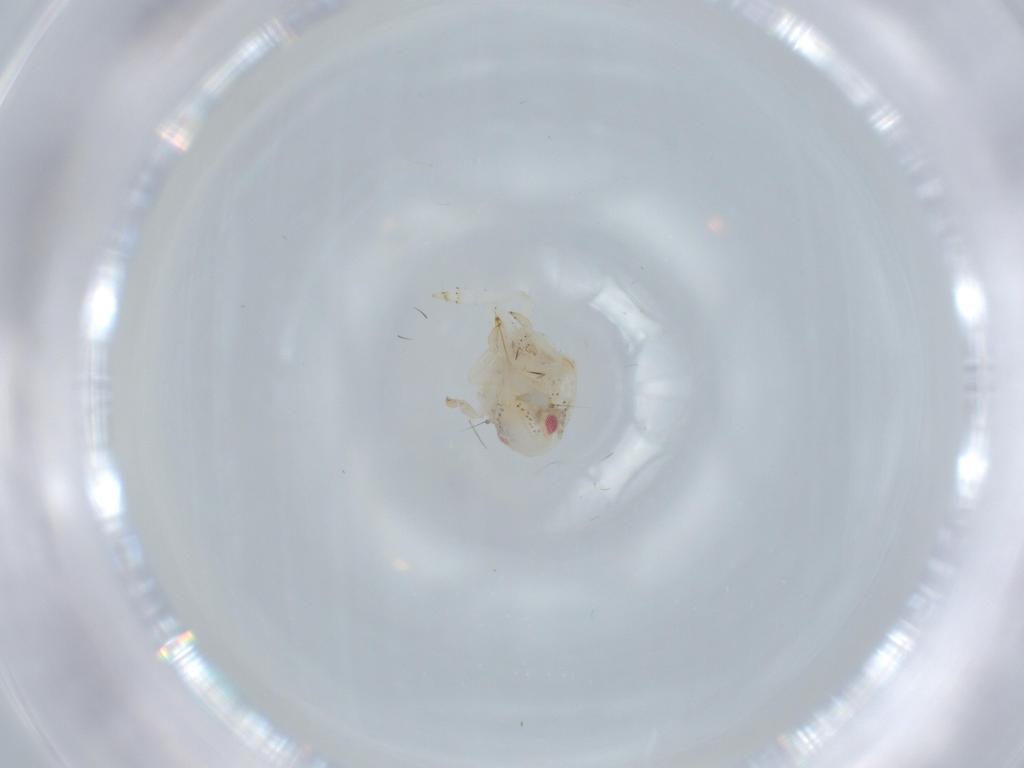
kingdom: Animalia
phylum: Arthropoda
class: Insecta
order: Hemiptera
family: Acanaloniidae
